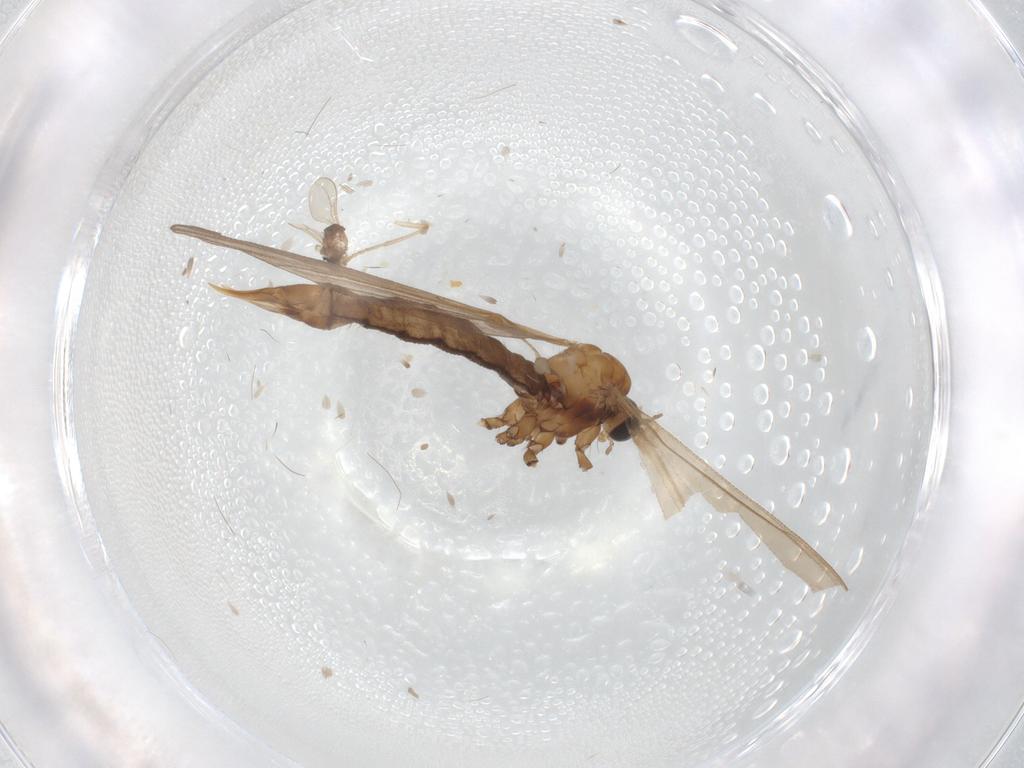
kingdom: Animalia
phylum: Arthropoda
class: Insecta
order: Diptera
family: Limoniidae
